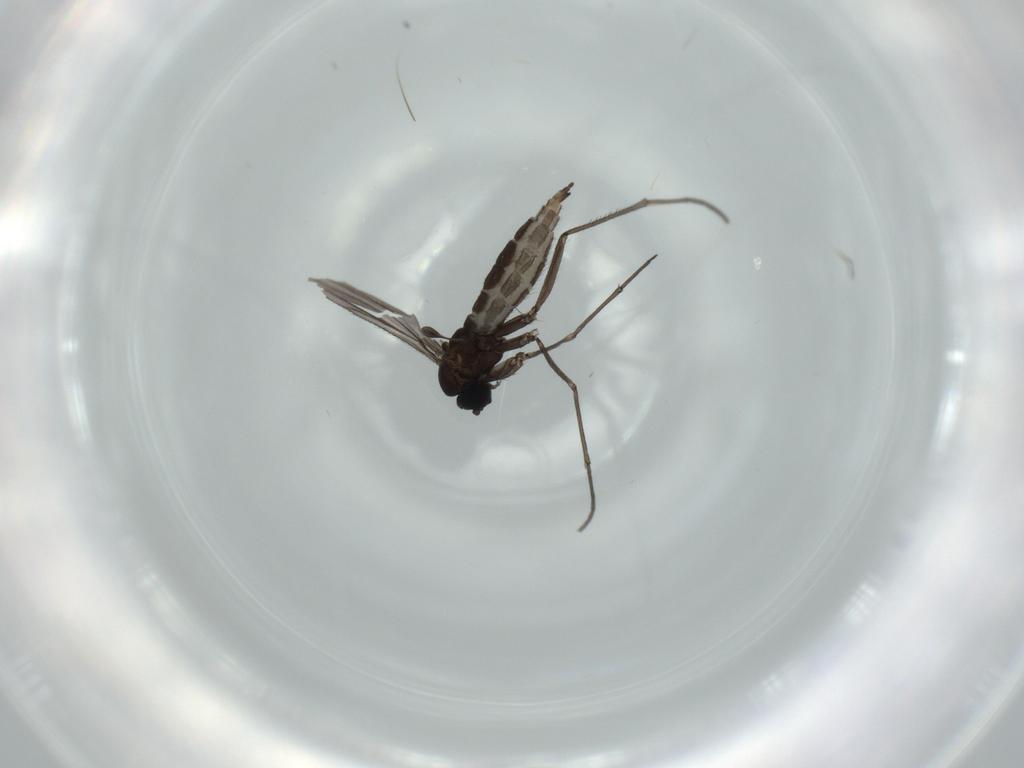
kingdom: Animalia
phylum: Arthropoda
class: Insecta
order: Diptera
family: Sciaridae
